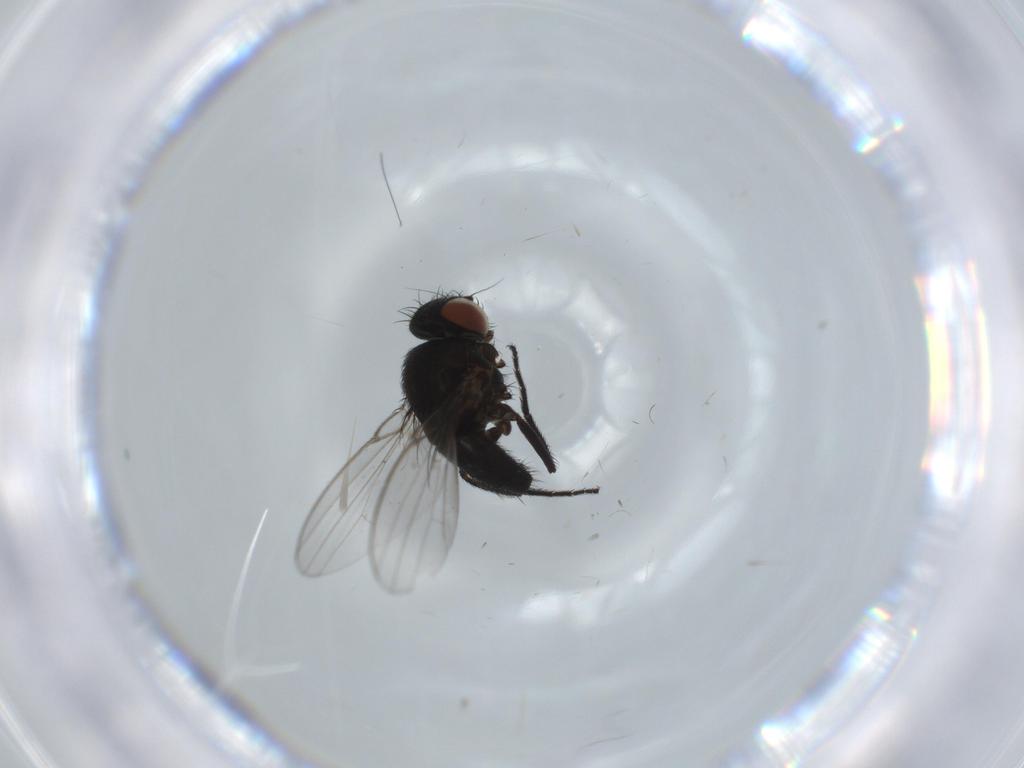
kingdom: Animalia
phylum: Arthropoda
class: Insecta
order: Diptera
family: Milichiidae
